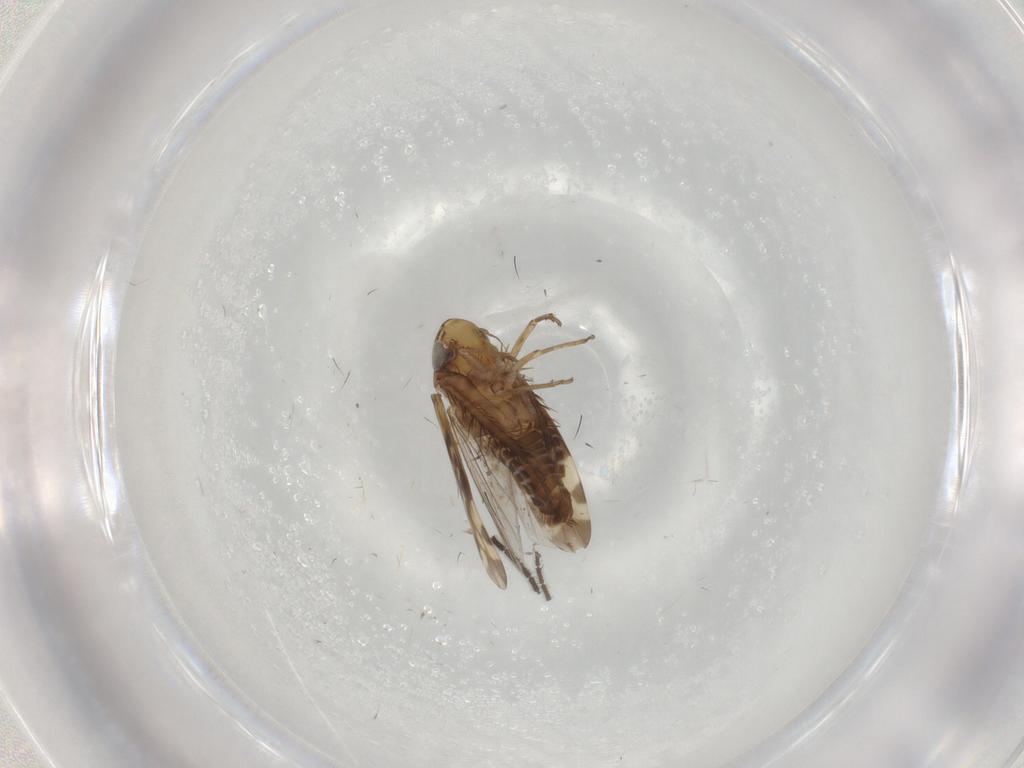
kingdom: Animalia
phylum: Arthropoda
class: Insecta
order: Hemiptera
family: Cicadellidae
